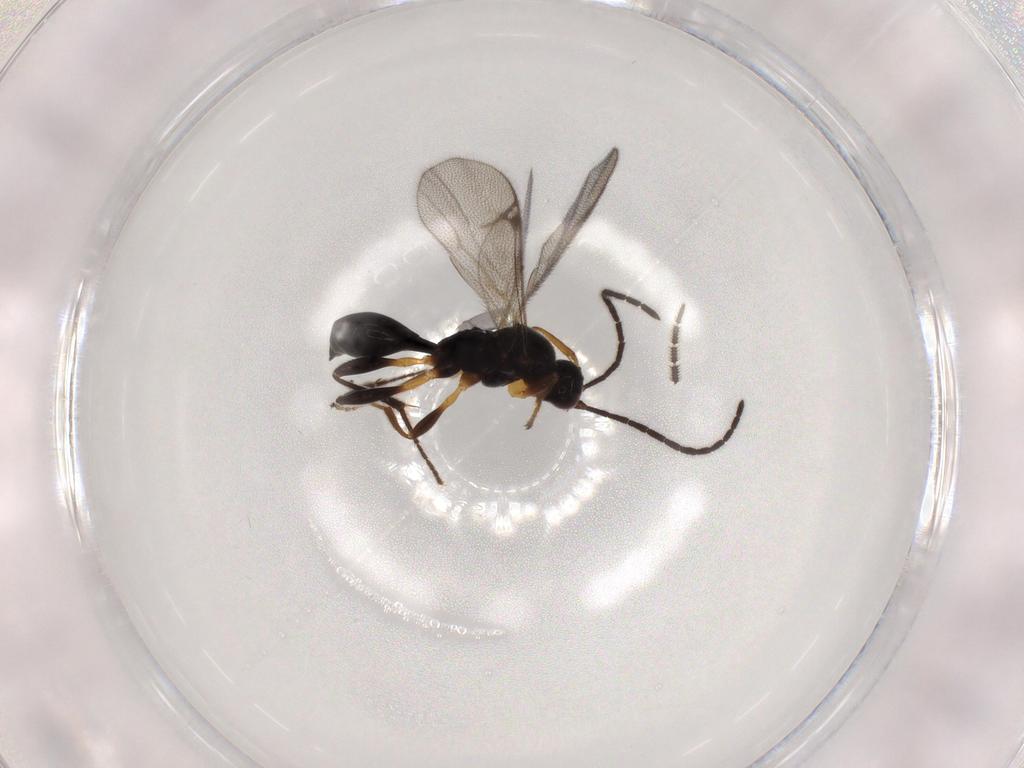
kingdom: Animalia
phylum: Arthropoda
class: Insecta
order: Hymenoptera
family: Proctotrupidae
